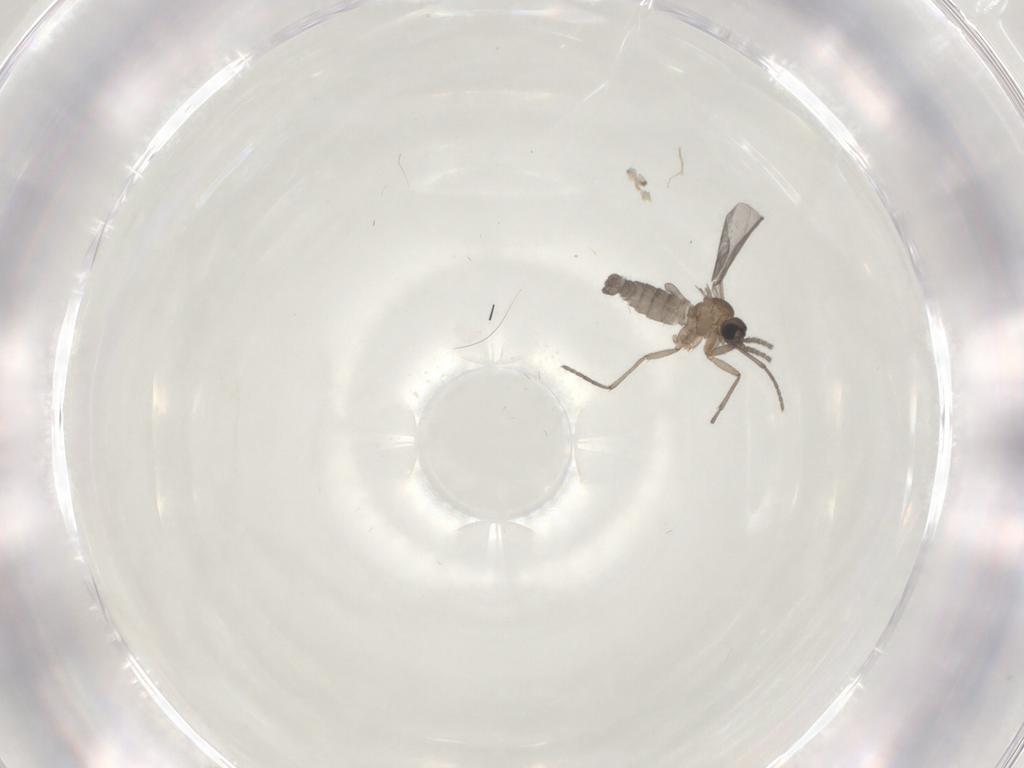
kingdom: Animalia
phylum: Arthropoda
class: Insecta
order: Diptera
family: Sciaridae
